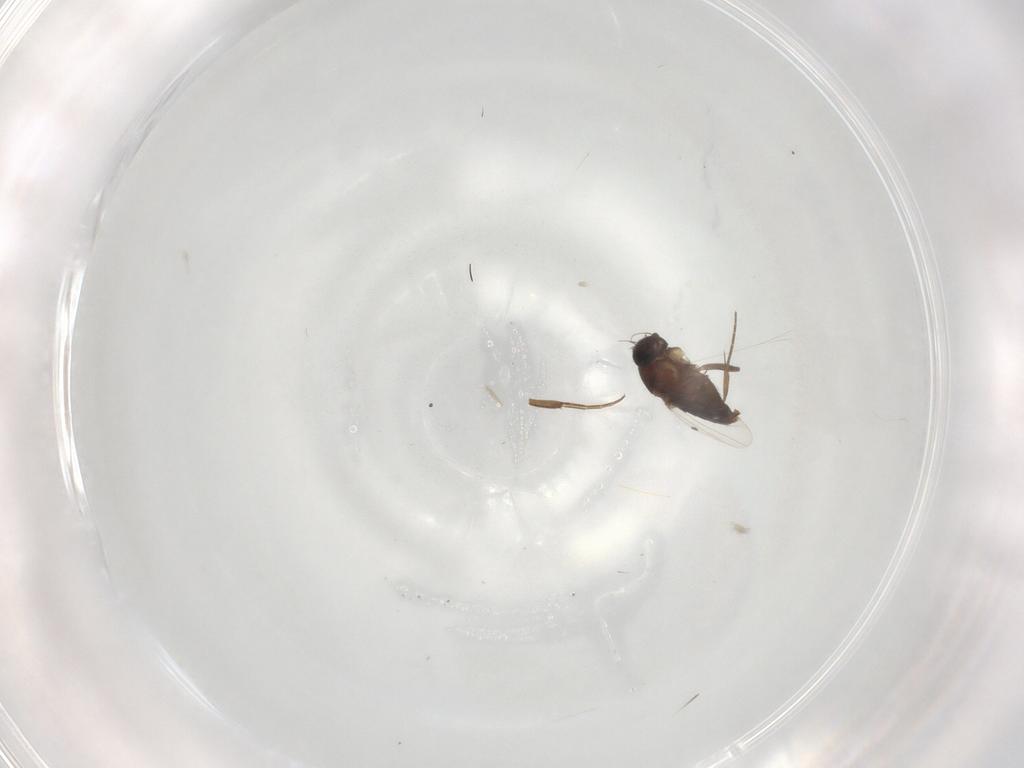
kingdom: Animalia
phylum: Arthropoda
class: Insecta
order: Diptera
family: Phoridae
